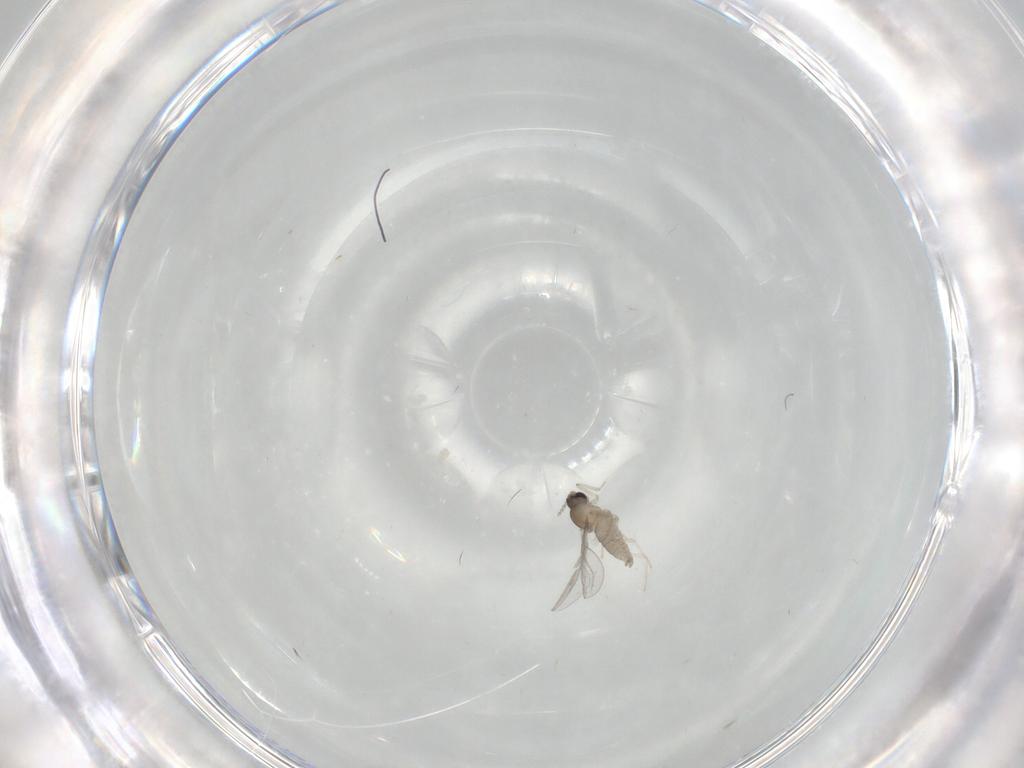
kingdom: Animalia
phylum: Arthropoda
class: Insecta
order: Diptera
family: Cecidomyiidae
